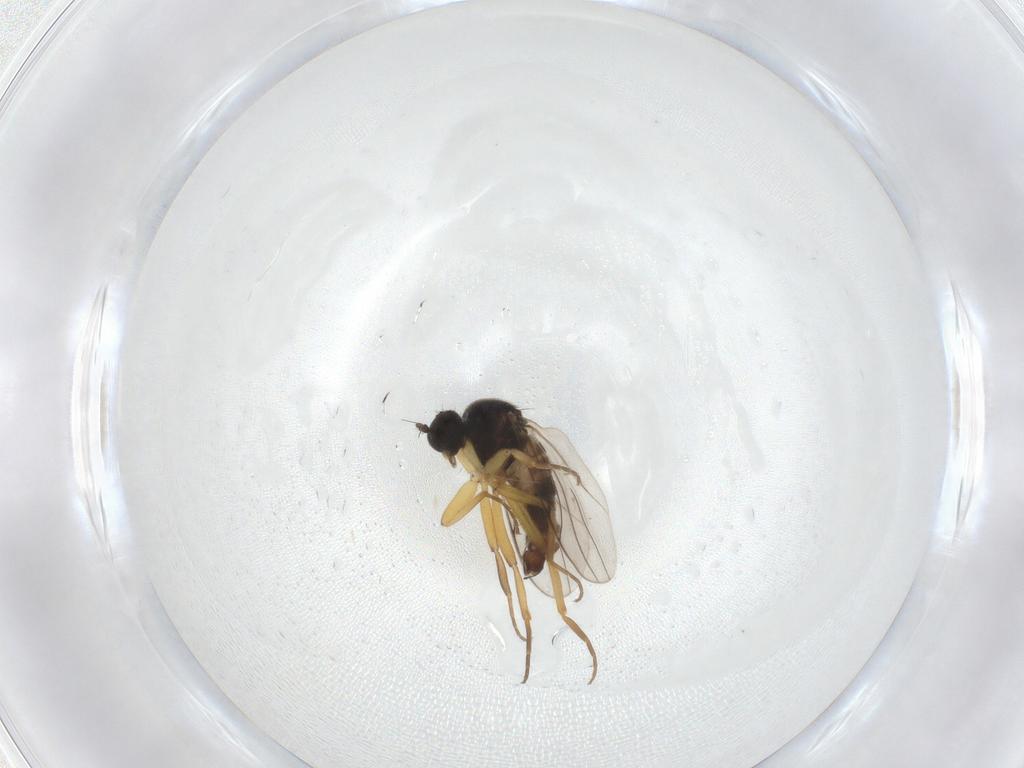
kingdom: Animalia
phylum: Arthropoda
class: Insecta
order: Diptera
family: Hybotidae
